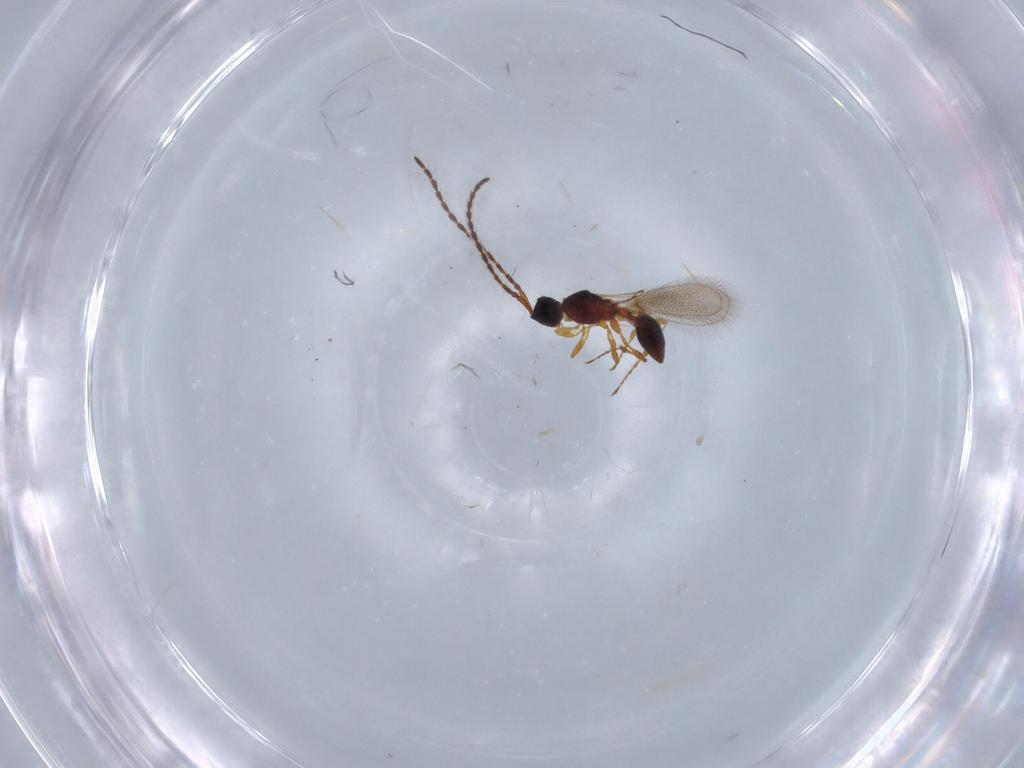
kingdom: Animalia
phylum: Arthropoda
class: Insecta
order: Hymenoptera
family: Diapriidae
